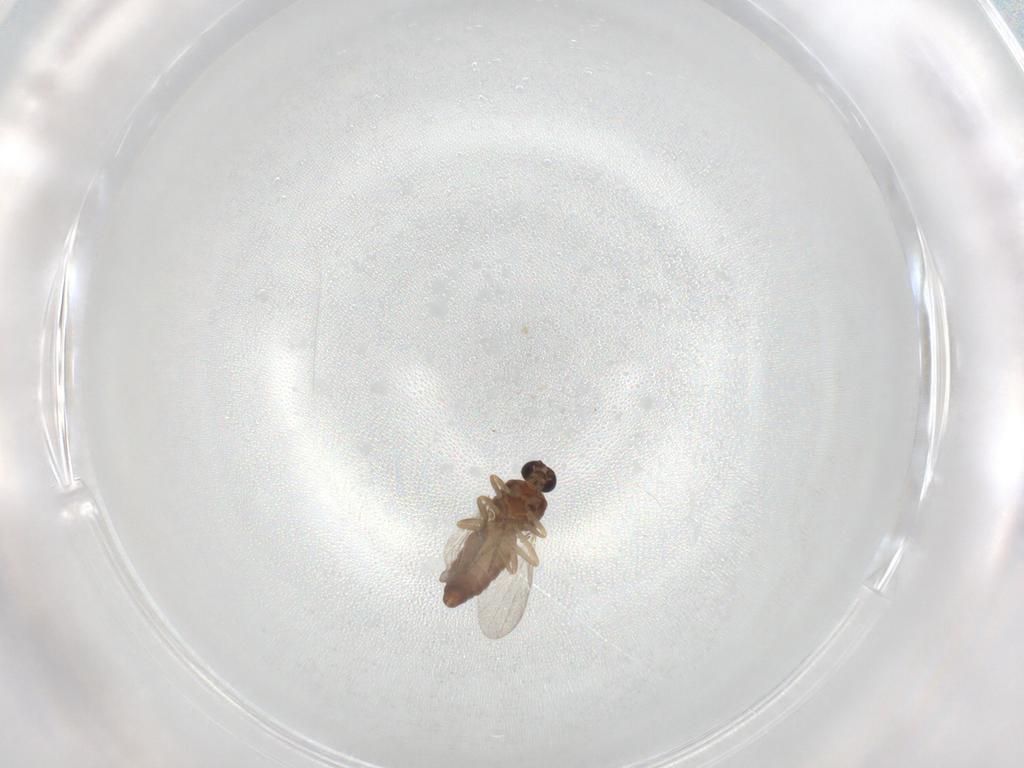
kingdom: Animalia
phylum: Arthropoda
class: Insecta
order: Diptera
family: Ceratopogonidae
